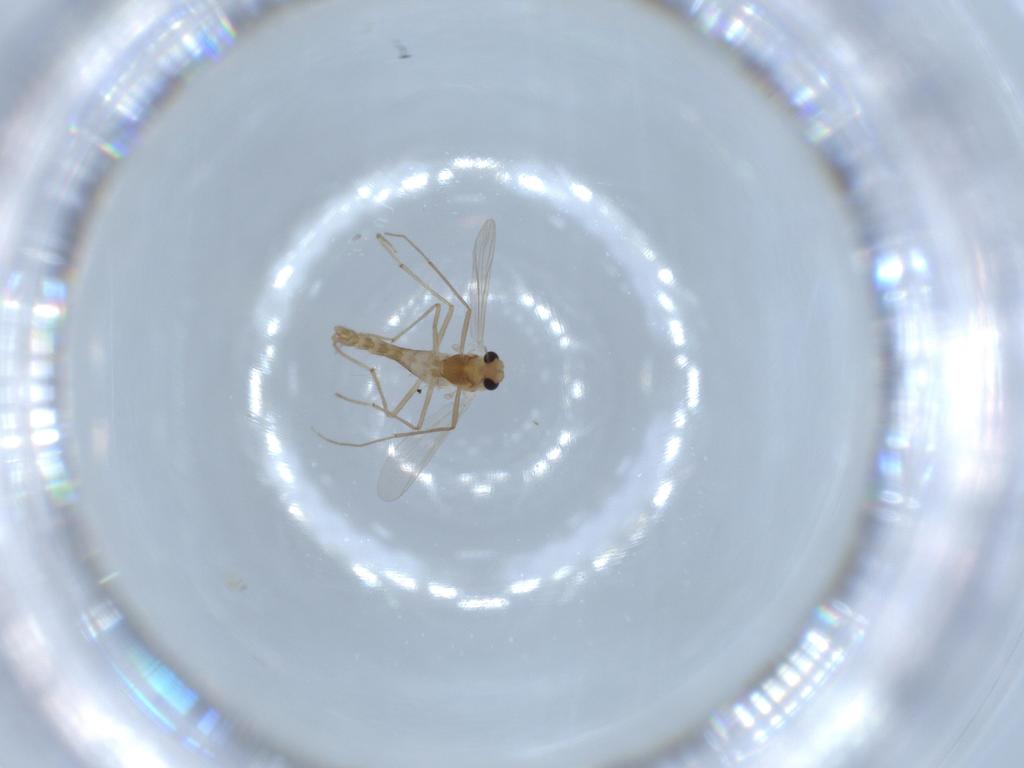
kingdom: Animalia
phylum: Arthropoda
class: Insecta
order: Diptera
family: Chironomidae
